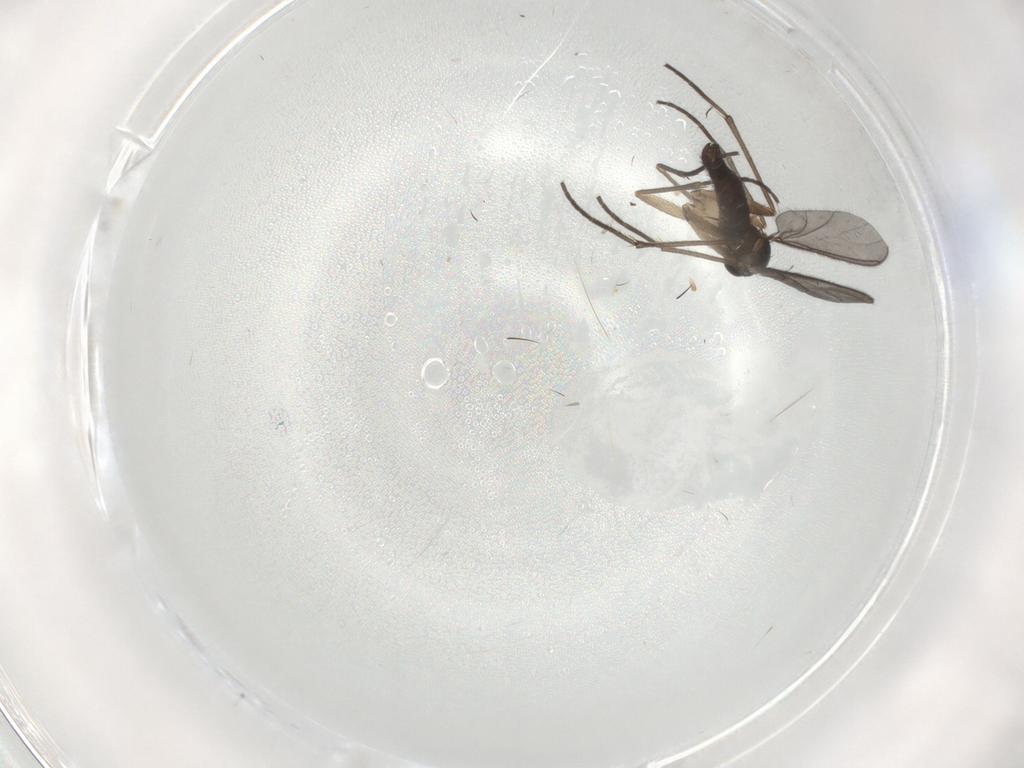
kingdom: Animalia
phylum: Arthropoda
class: Insecta
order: Diptera
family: Sciaridae
